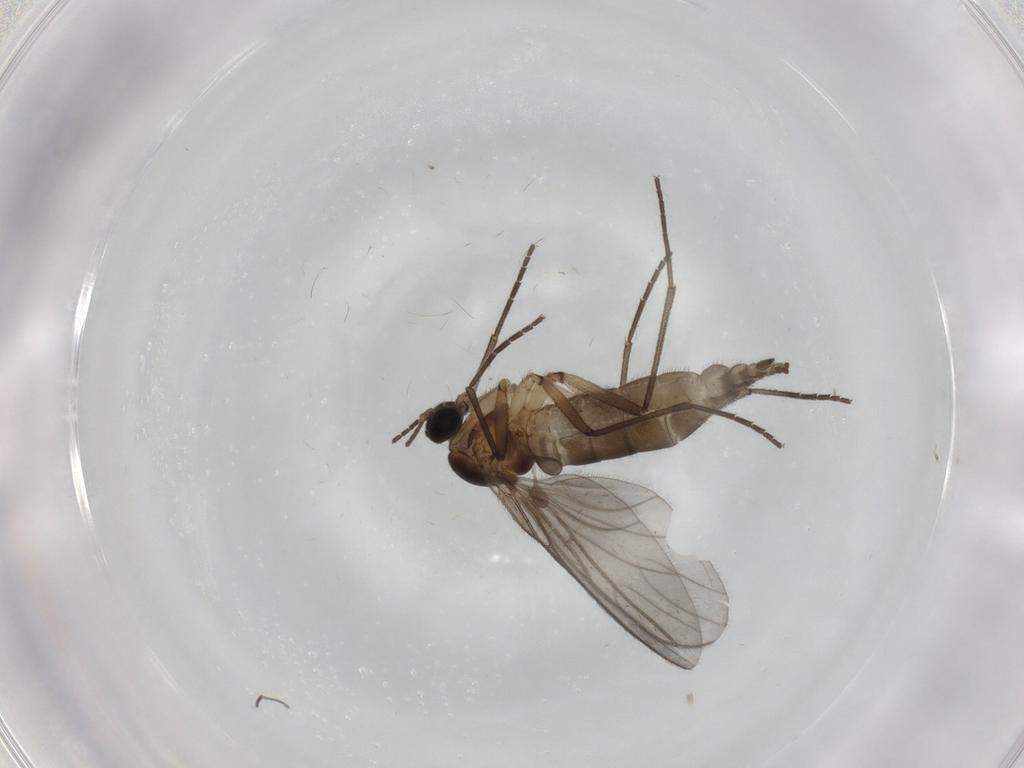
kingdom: Animalia
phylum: Arthropoda
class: Insecta
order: Diptera
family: Sciaridae
